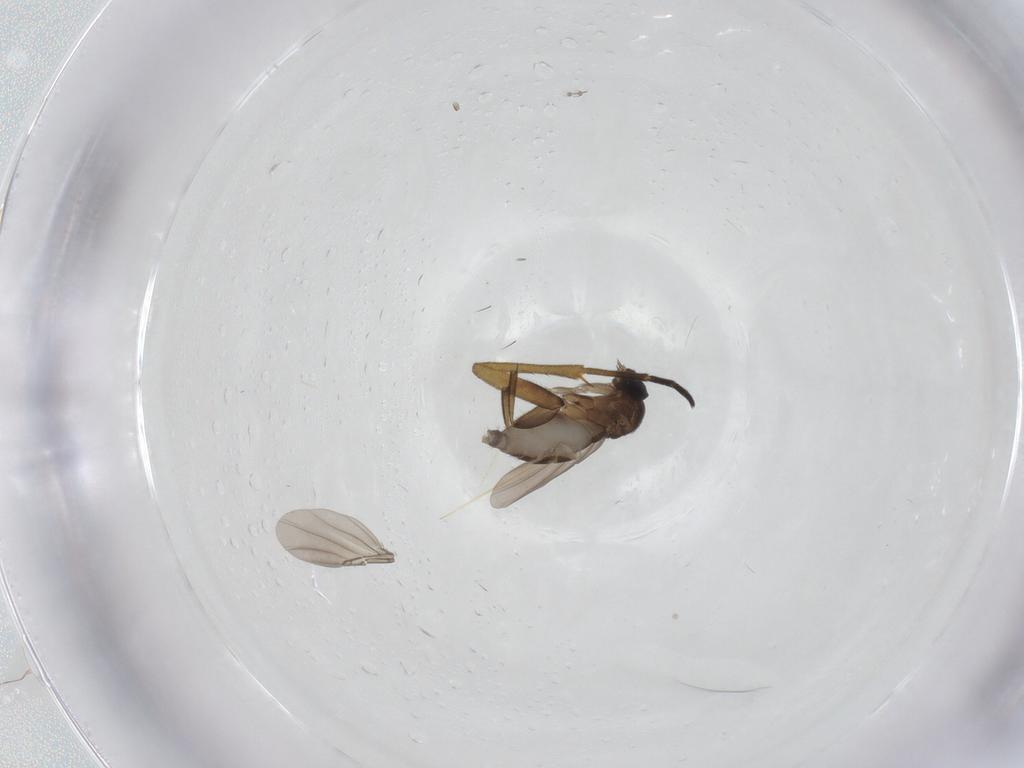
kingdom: Animalia
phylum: Arthropoda
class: Insecta
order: Diptera
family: Phoridae
